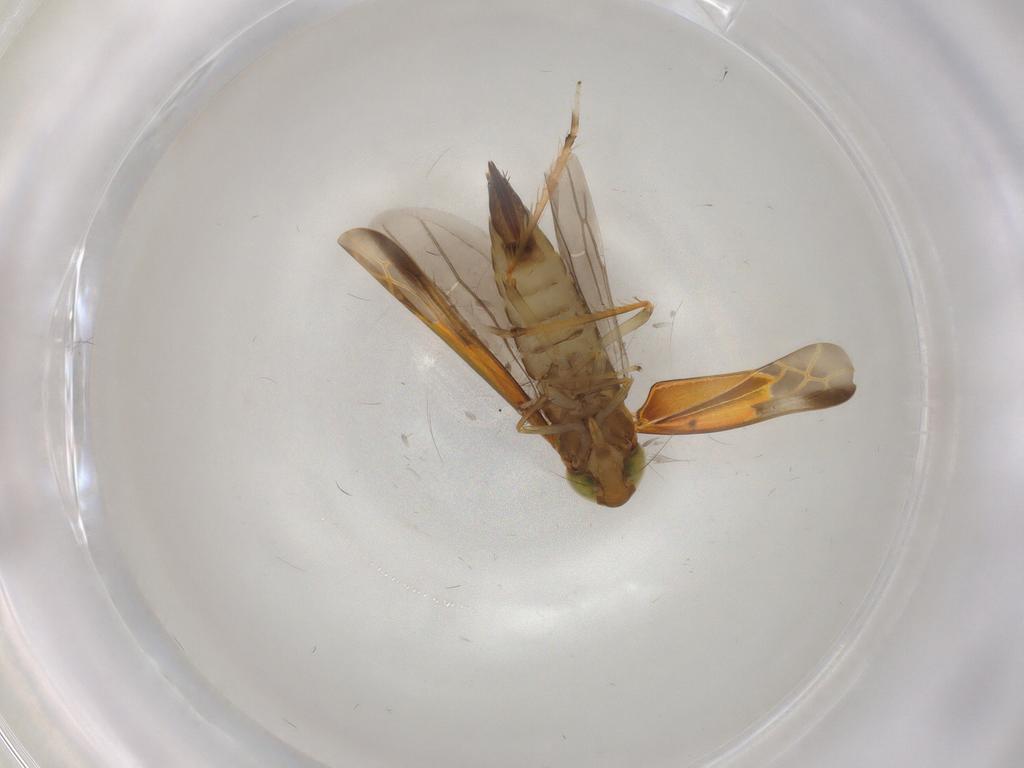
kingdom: Animalia
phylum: Arthropoda
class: Insecta
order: Hemiptera
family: Cicadellidae
